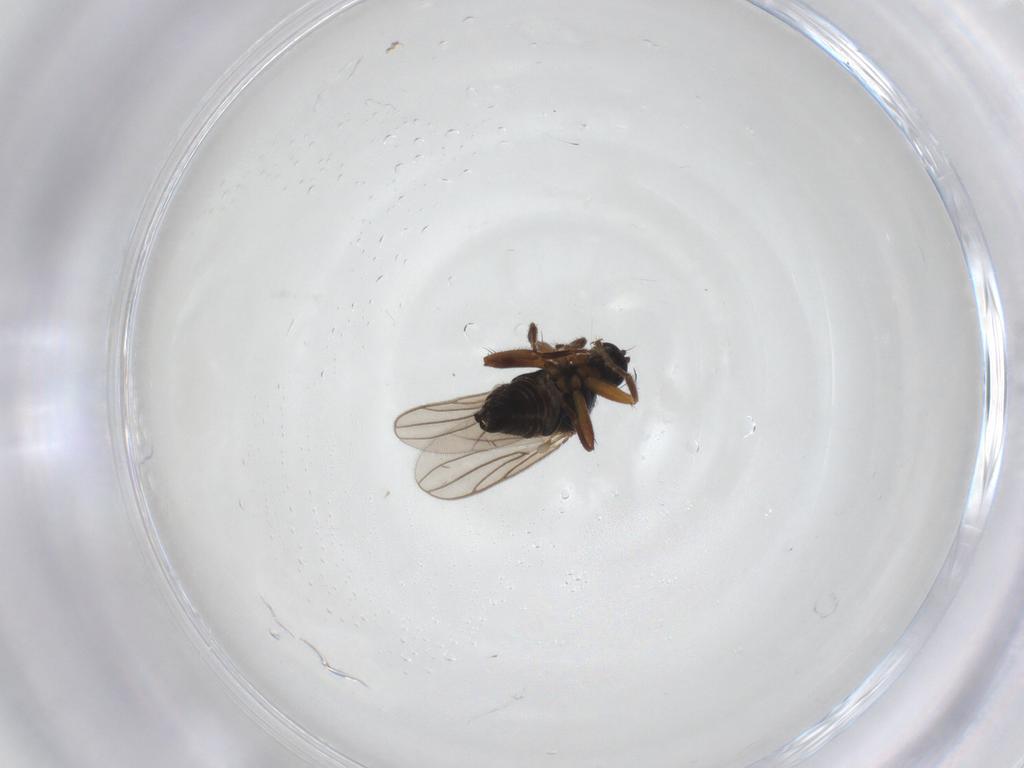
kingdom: Animalia
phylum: Arthropoda
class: Insecta
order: Diptera
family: Hybotidae
